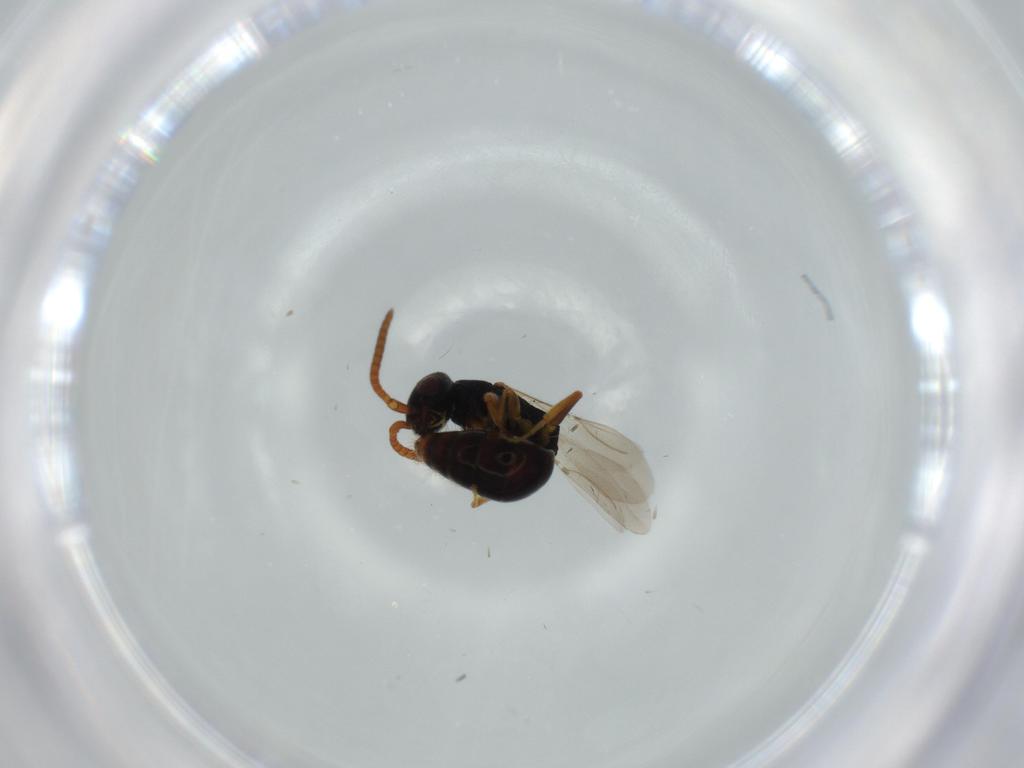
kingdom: Animalia
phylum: Arthropoda
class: Insecta
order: Hymenoptera
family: Bethylidae
